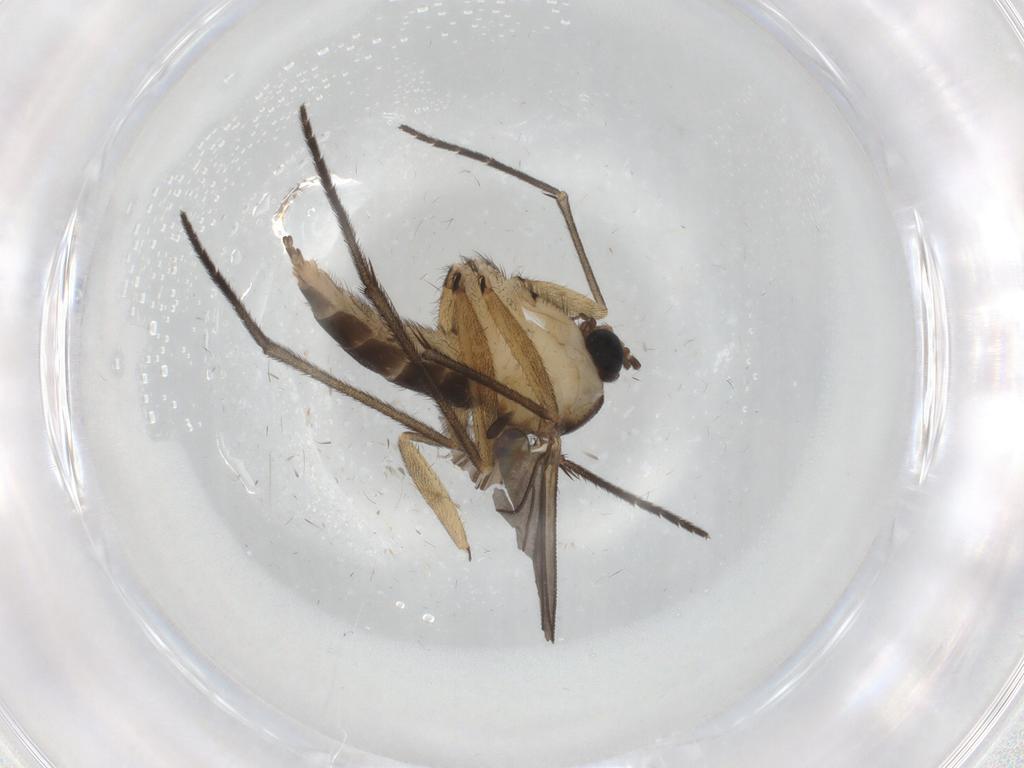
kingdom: Animalia
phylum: Arthropoda
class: Insecta
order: Diptera
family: Sciaridae
